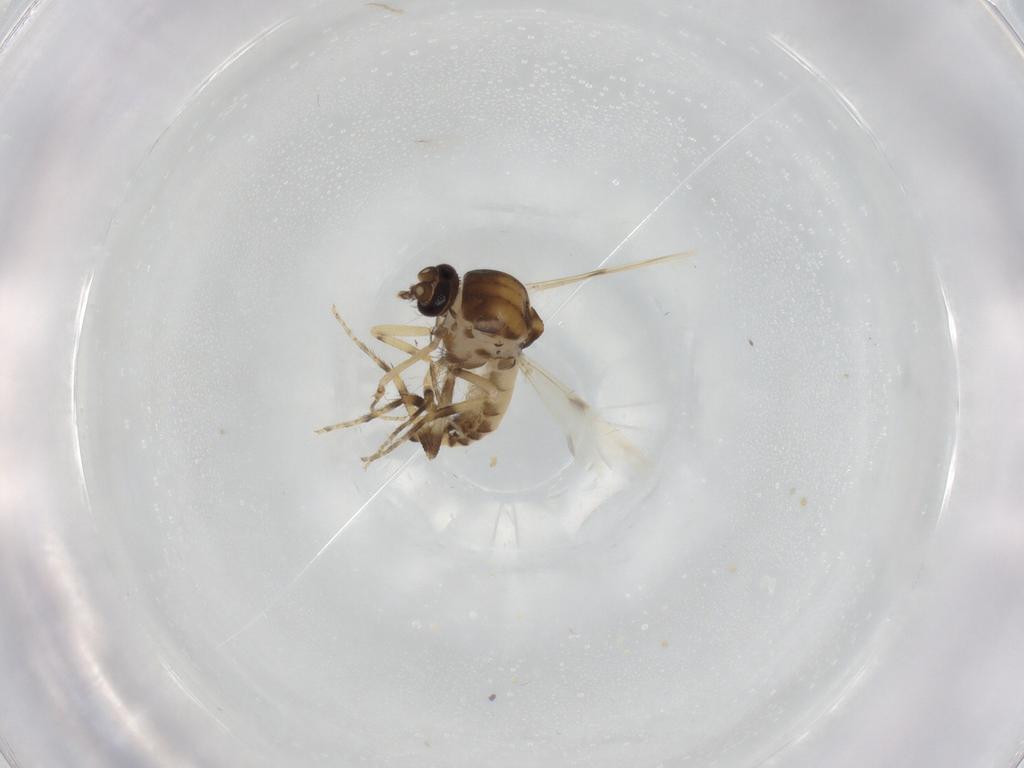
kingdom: Animalia
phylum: Arthropoda
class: Insecta
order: Diptera
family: Ceratopogonidae
